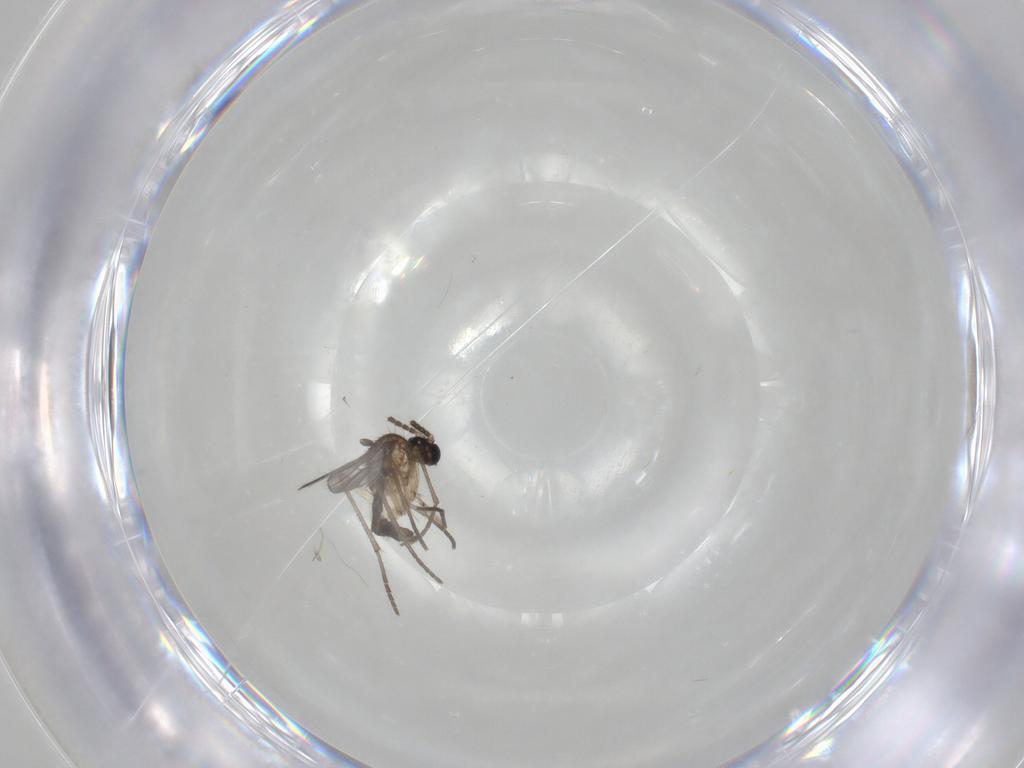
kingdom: Animalia
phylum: Arthropoda
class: Insecta
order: Diptera
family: Sciaridae
